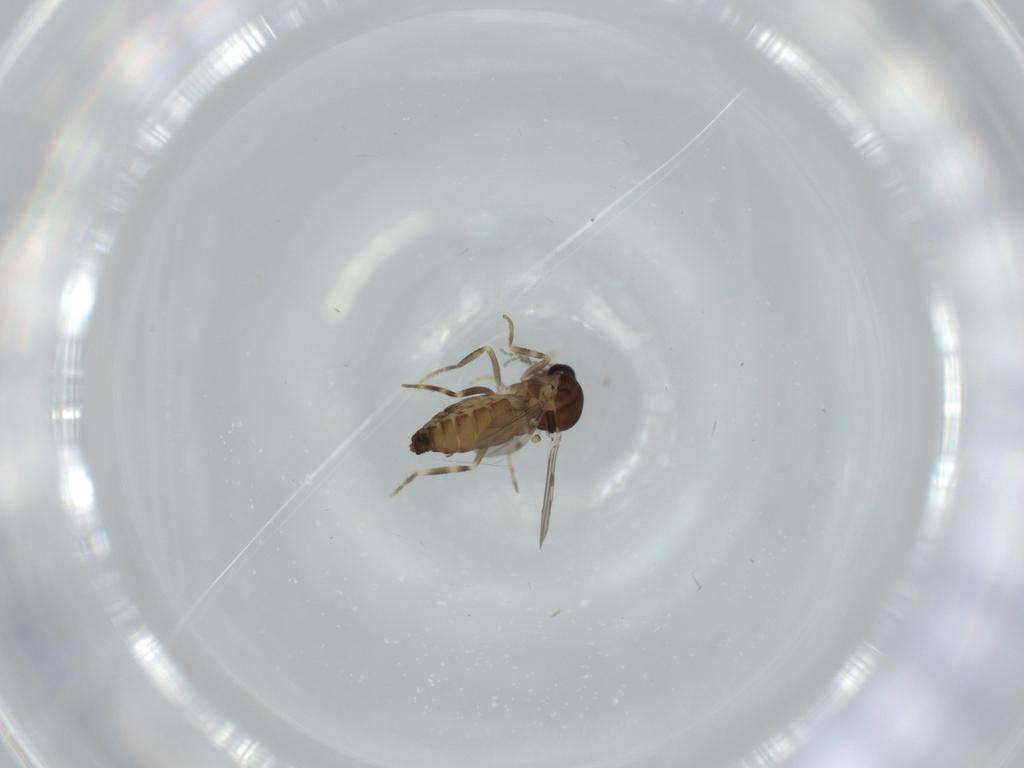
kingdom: Animalia
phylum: Arthropoda
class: Insecta
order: Diptera
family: Ceratopogonidae
